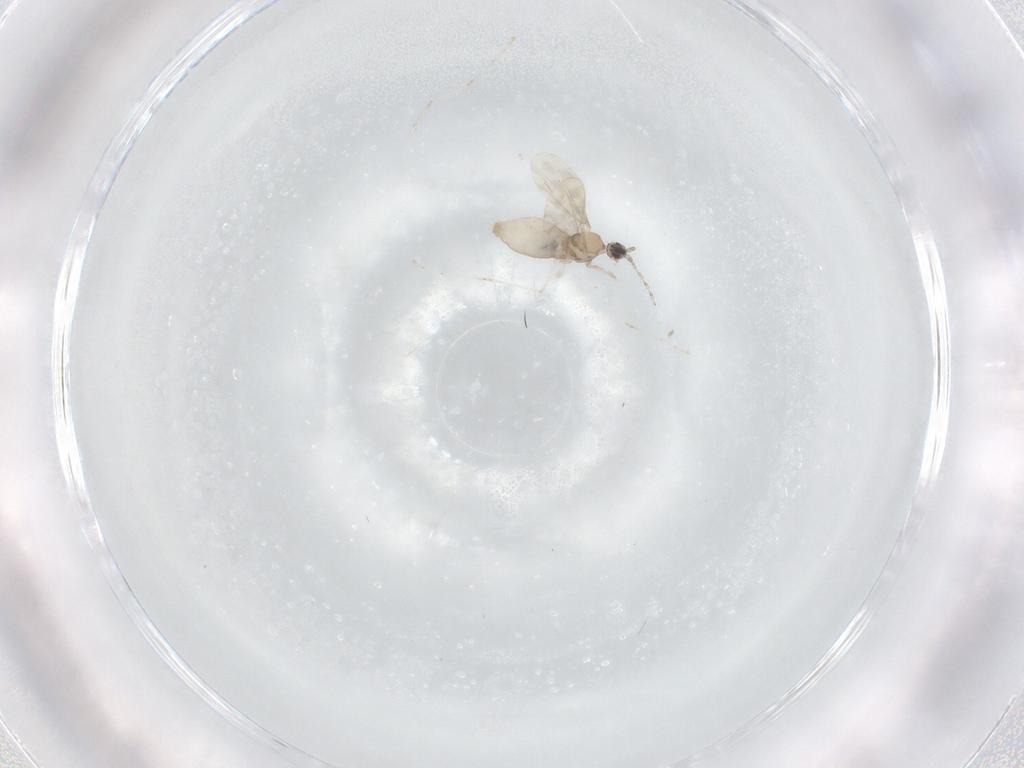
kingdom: Animalia
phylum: Arthropoda
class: Insecta
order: Diptera
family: Cecidomyiidae
